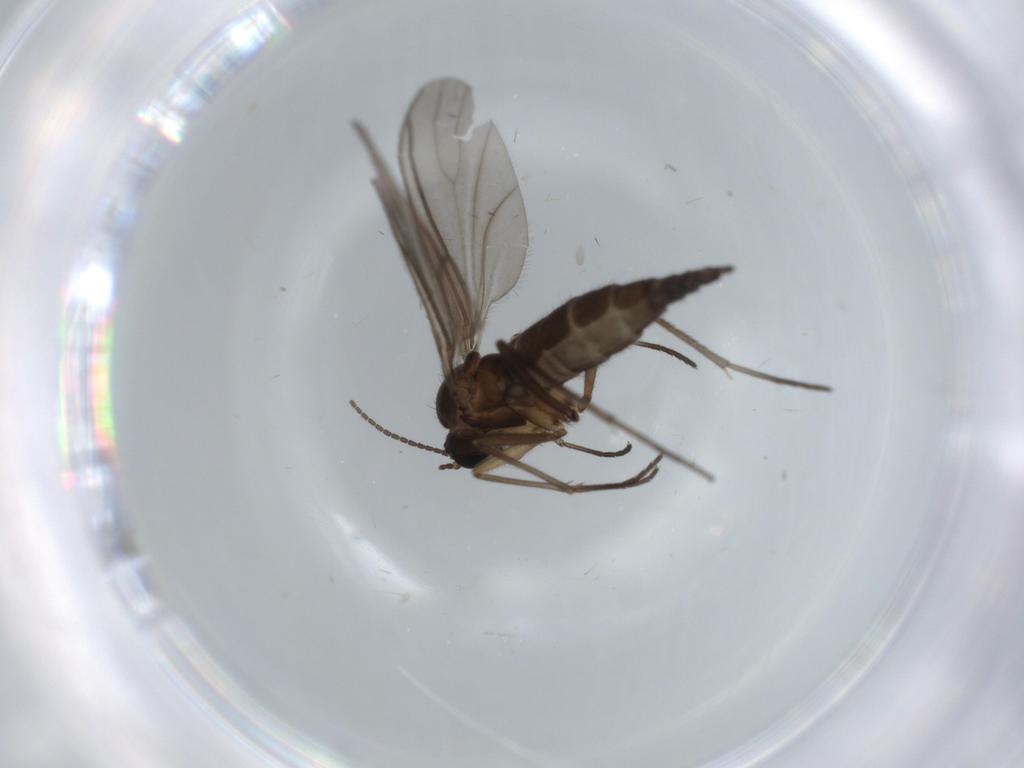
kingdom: Animalia
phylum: Arthropoda
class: Insecta
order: Diptera
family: Sciaridae
